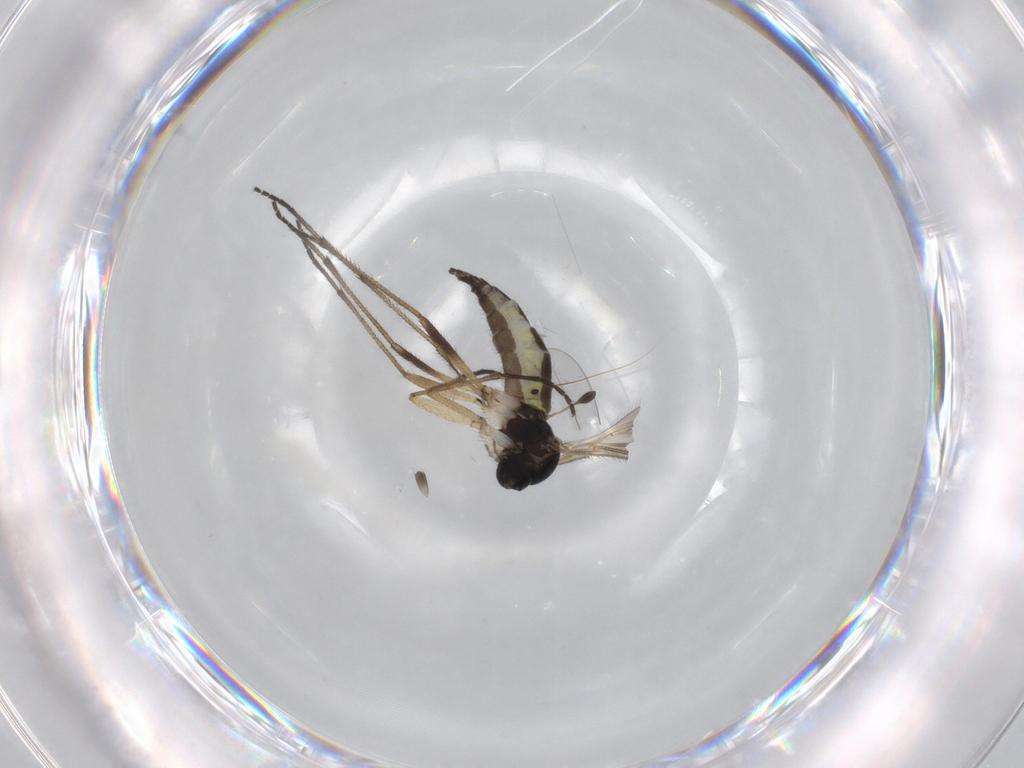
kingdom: Animalia
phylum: Arthropoda
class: Insecta
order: Diptera
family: Sciaridae
